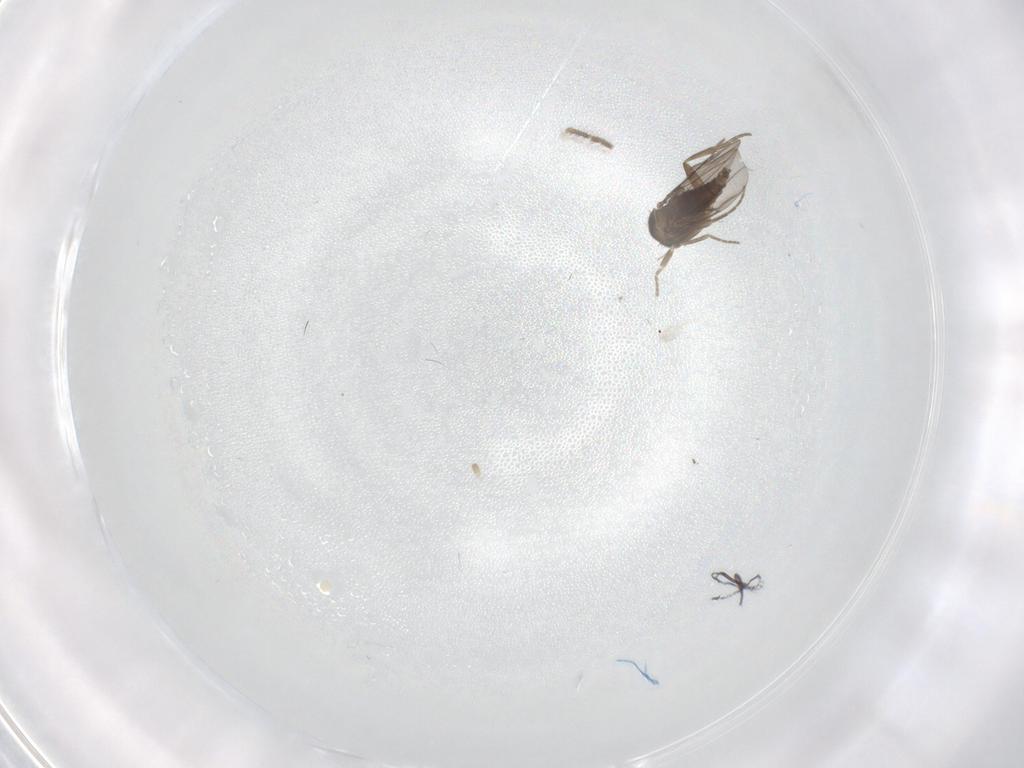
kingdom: Animalia
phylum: Arthropoda
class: Insecta
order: Diptera
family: Phoridae
